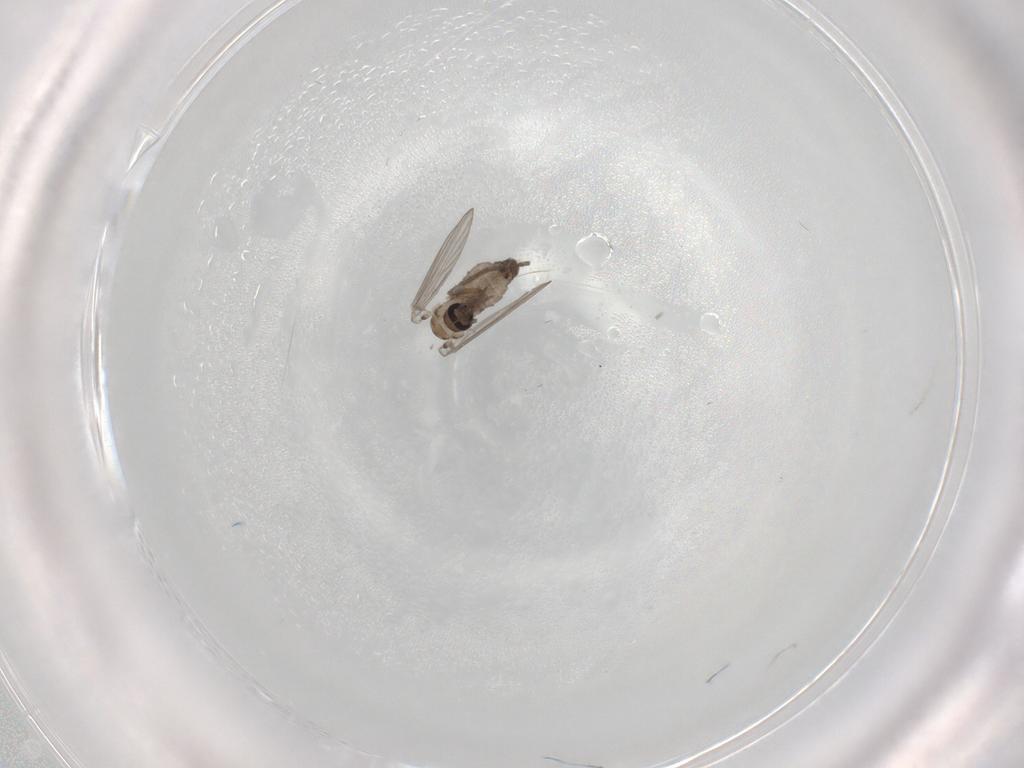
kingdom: Animalia
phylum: Arthropoda
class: Insecta
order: Diptera
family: Psychodidae
